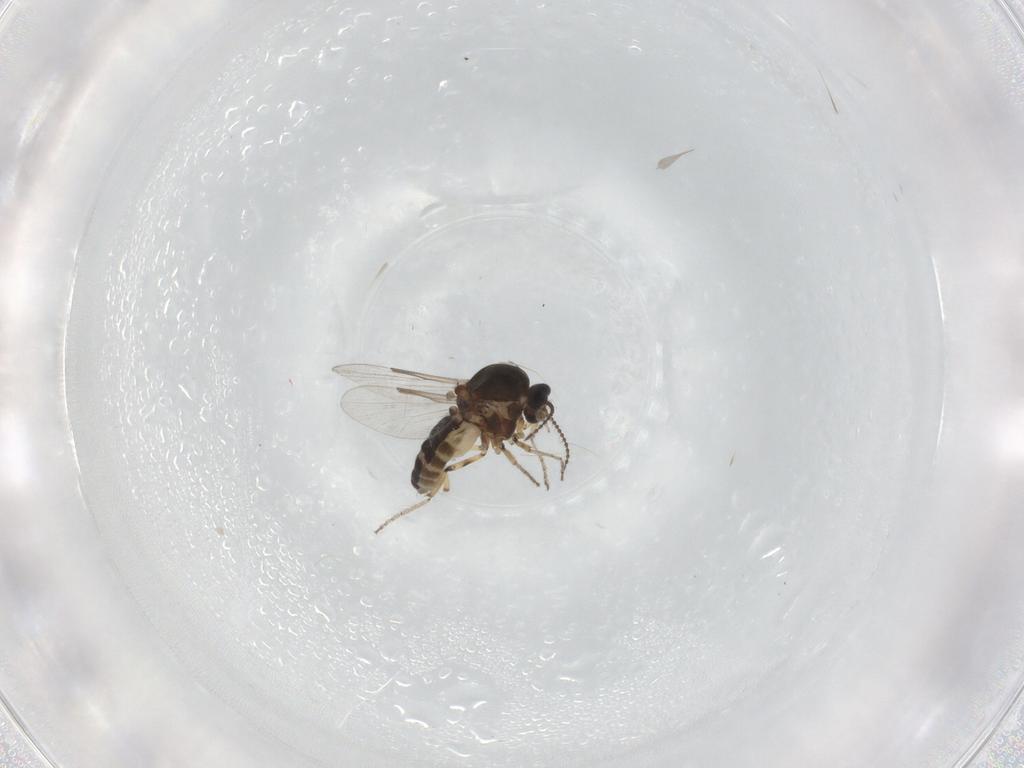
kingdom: Animalia
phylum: Arthropoda
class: Insecta
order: Diptera
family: Cecidomyiidae
